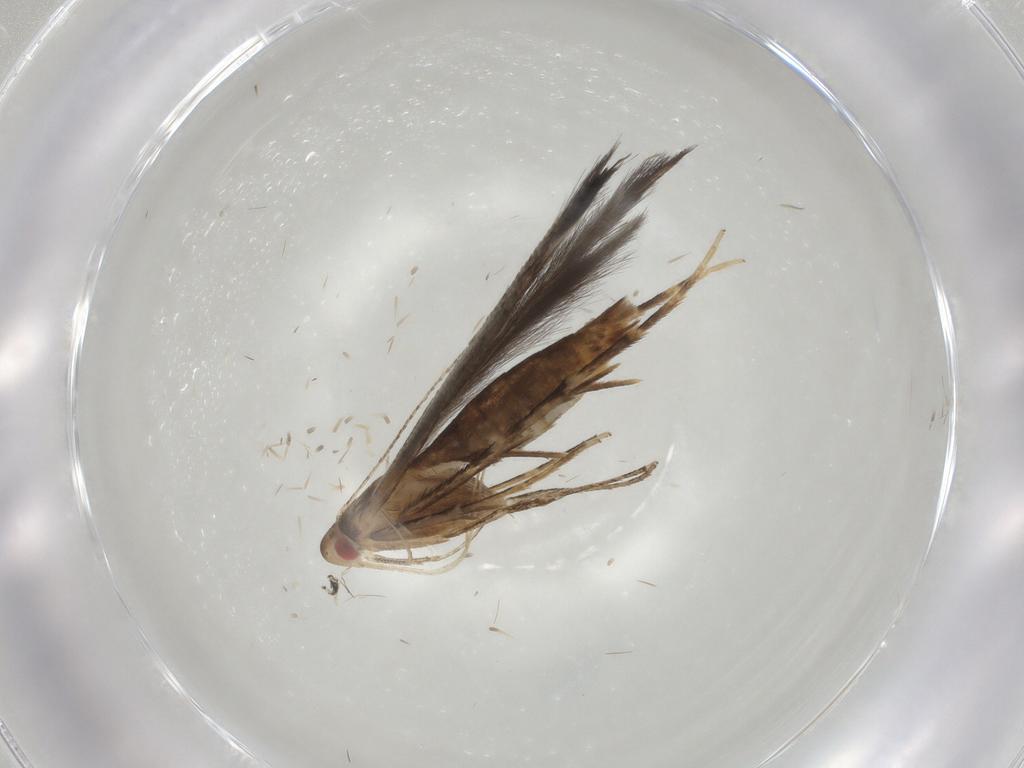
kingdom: Animalia
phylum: Arthropoda
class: Insecta
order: Lepidoptera
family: Cosmopterigidae
